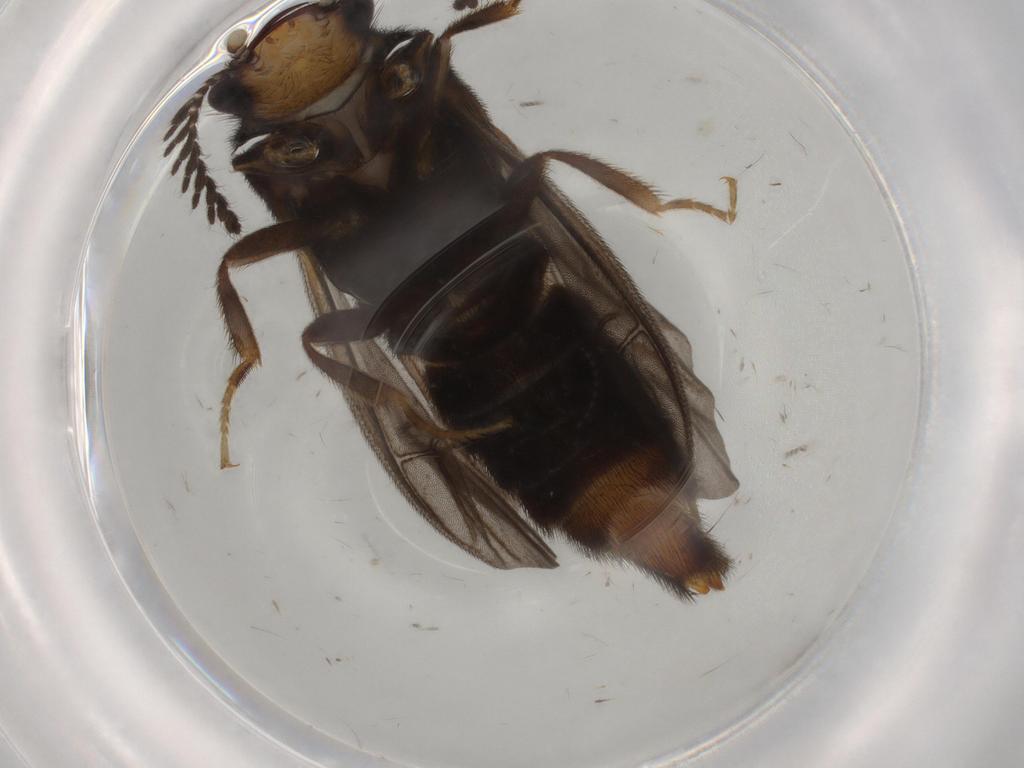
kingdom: Animalia
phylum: Arthropoda
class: Insecta
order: Coleoptera
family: Phengodidae
